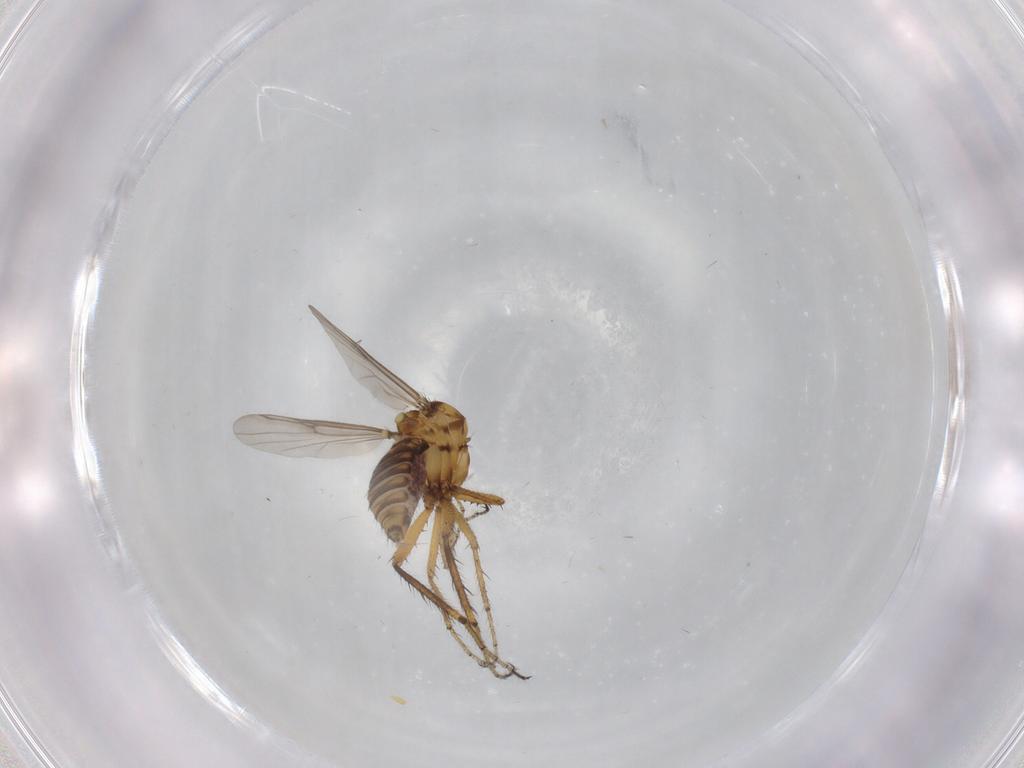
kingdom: Animalia
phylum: Arthropoda
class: Insecta
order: Diptera
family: Ceratopogonidae
